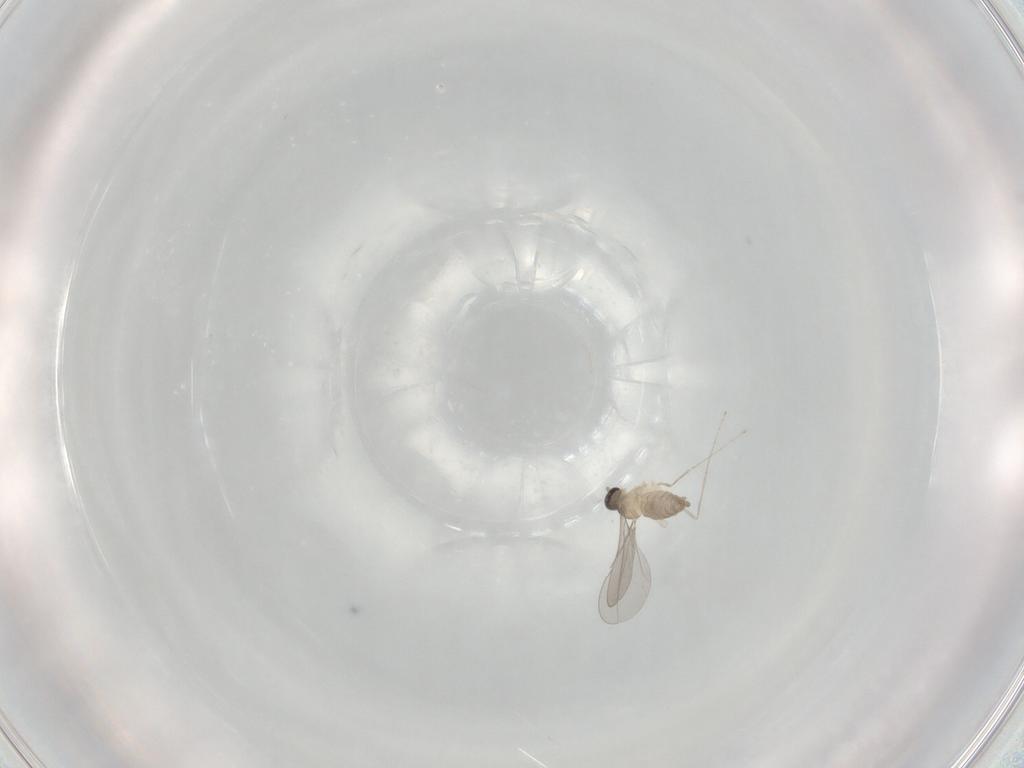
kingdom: Animalia
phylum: Arthropoda
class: Insecta
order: Diptera
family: Cecidomyiidae
